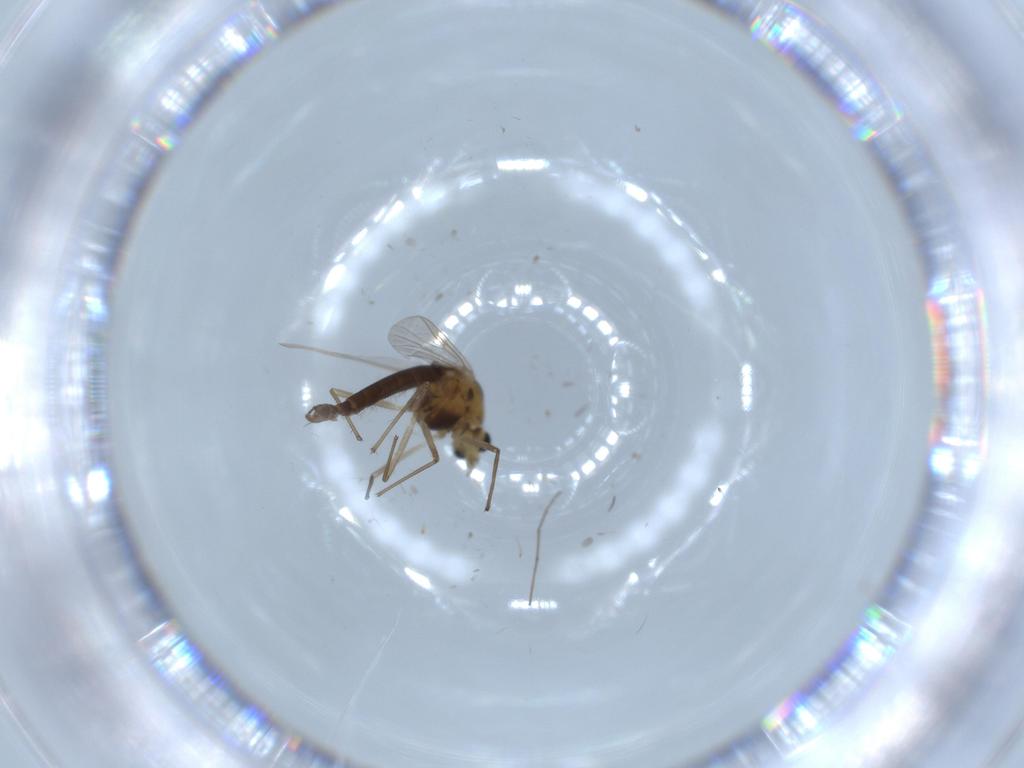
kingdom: Animalia
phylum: Arthropoda
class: Insecta
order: Diptera
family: Chironomidae
